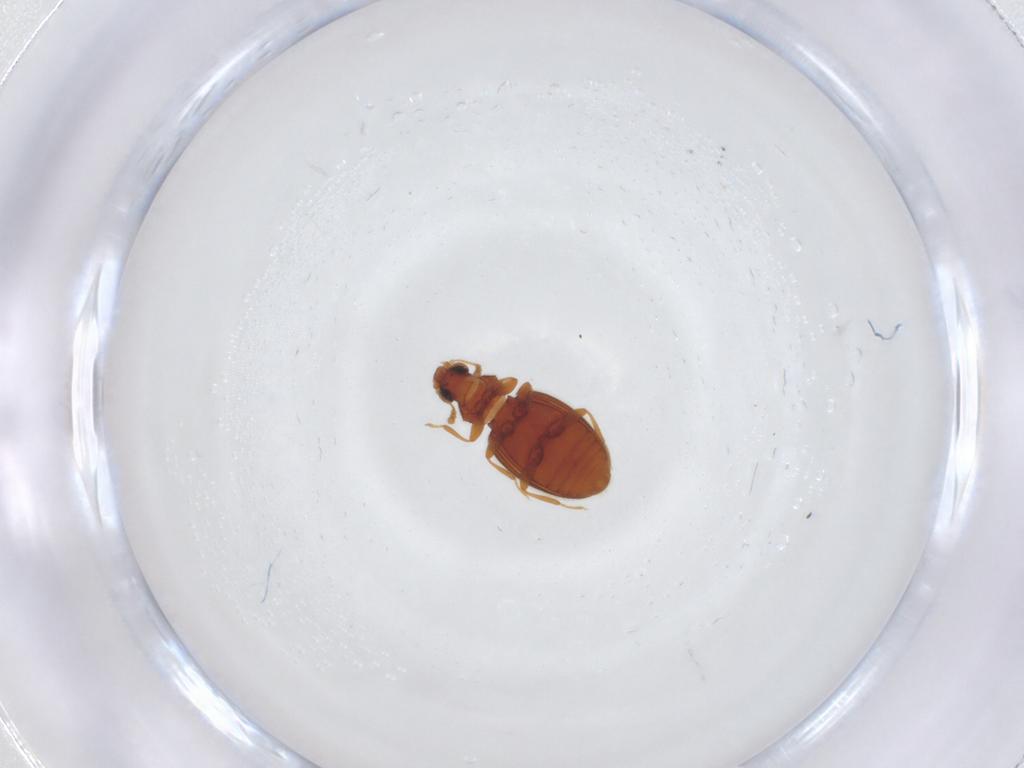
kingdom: Animalia
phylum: Arthropoda
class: Insecta
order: Coleoptera
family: Latridiidae
